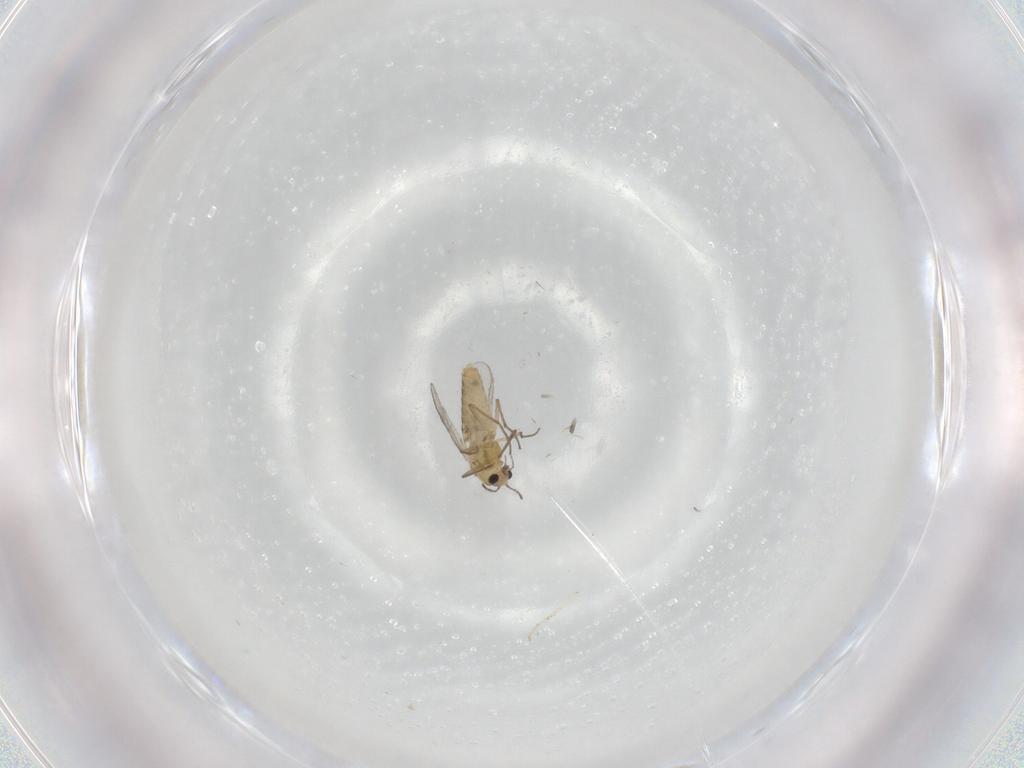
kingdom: Animalia
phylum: Arthropoda
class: Insecta
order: Diptera
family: Chironomidae
